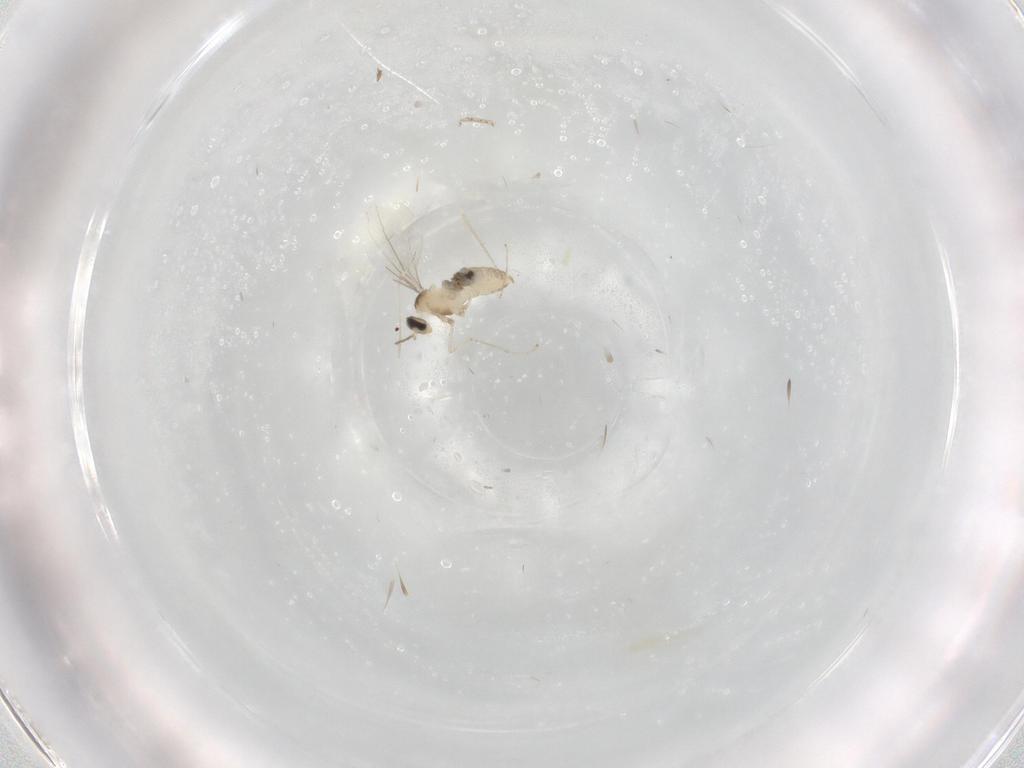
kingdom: Animalia
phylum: Arthropoda
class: Insecta
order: Diptera
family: Cecidomyiidae
